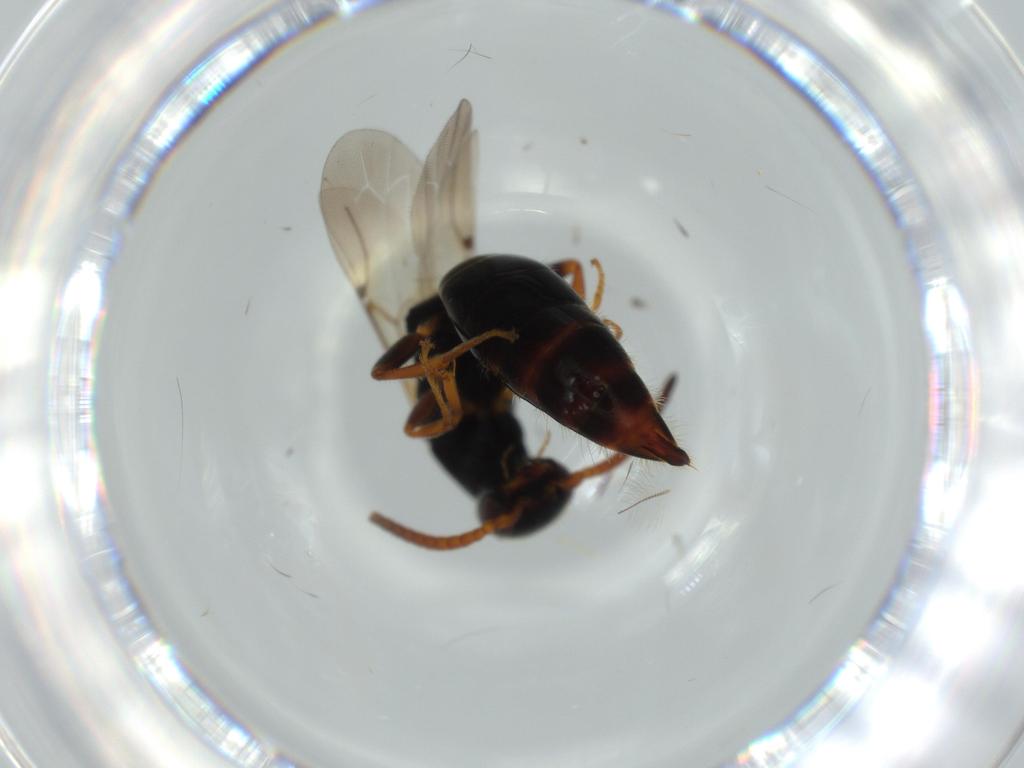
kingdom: Animalia
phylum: Arthropoda
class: Insecta
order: Hymenoptera
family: Bethylidae
